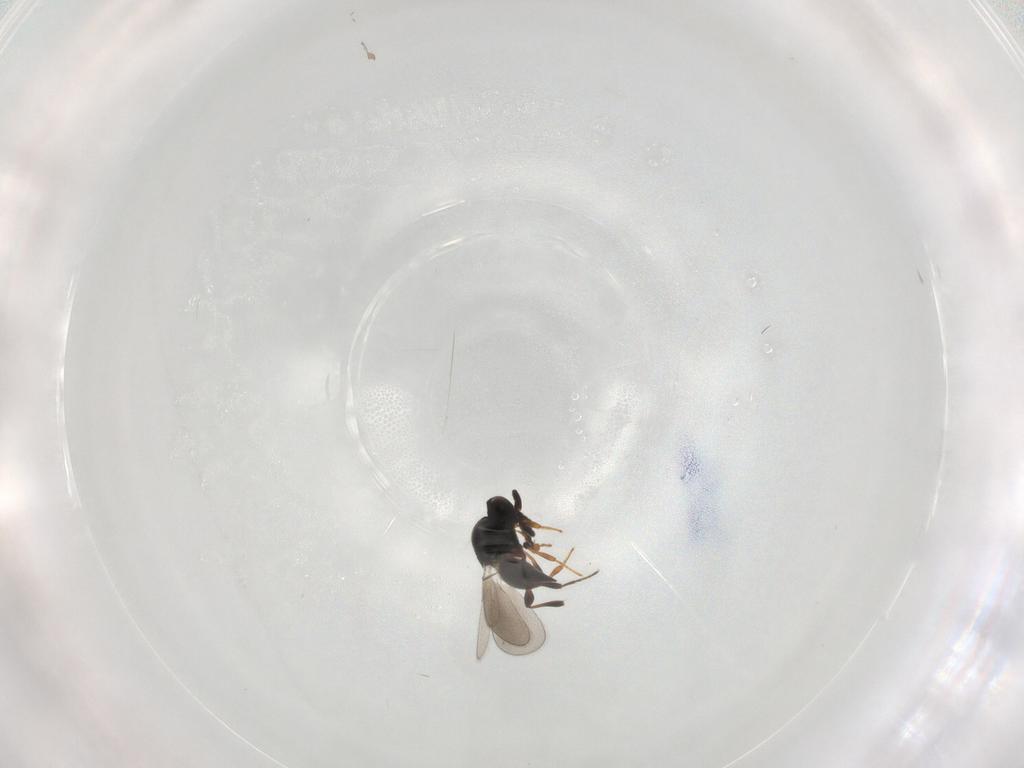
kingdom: Animalia
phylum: Arthropoda
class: Insecta
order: Hymenoptera
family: Platygastridae
